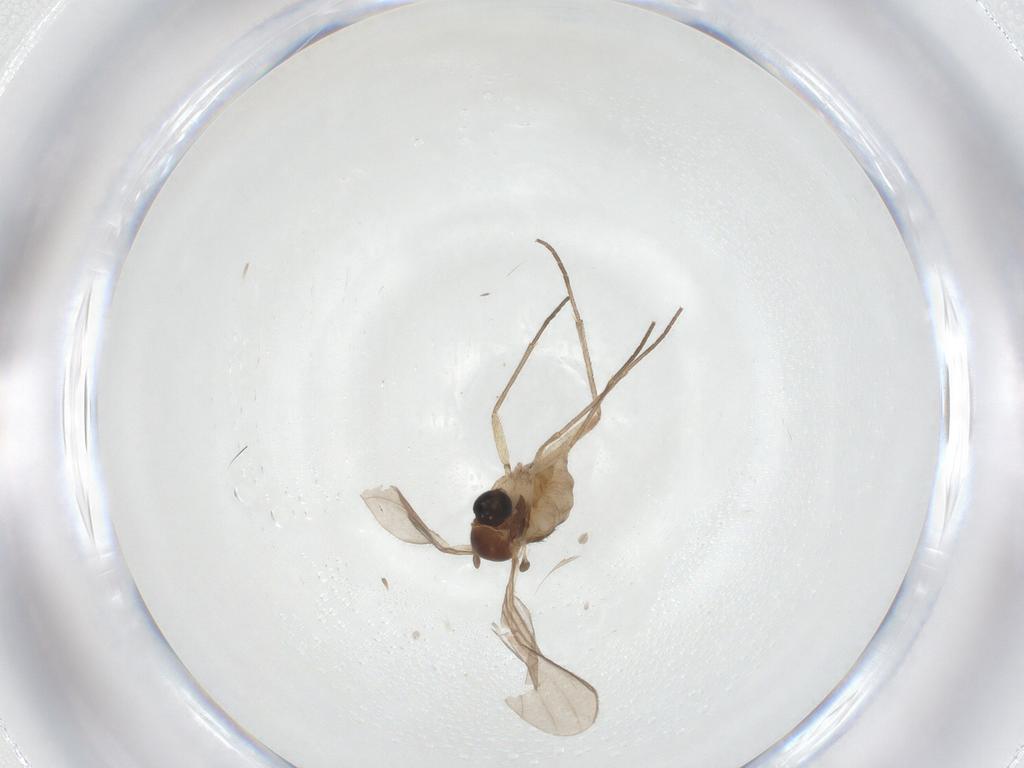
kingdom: Animalia
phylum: Arthropoda
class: Insecta
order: Diptera
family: Sciaridae
